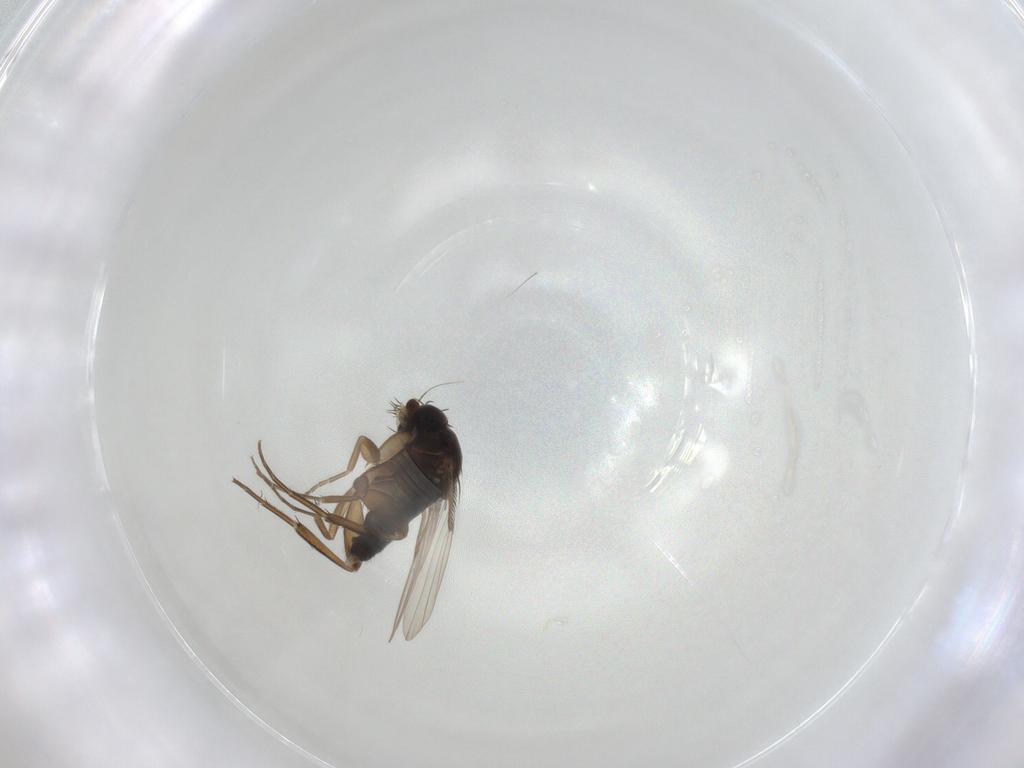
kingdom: Animalia
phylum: Arthropoda
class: Insecta
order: Diptera
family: Phoridae
